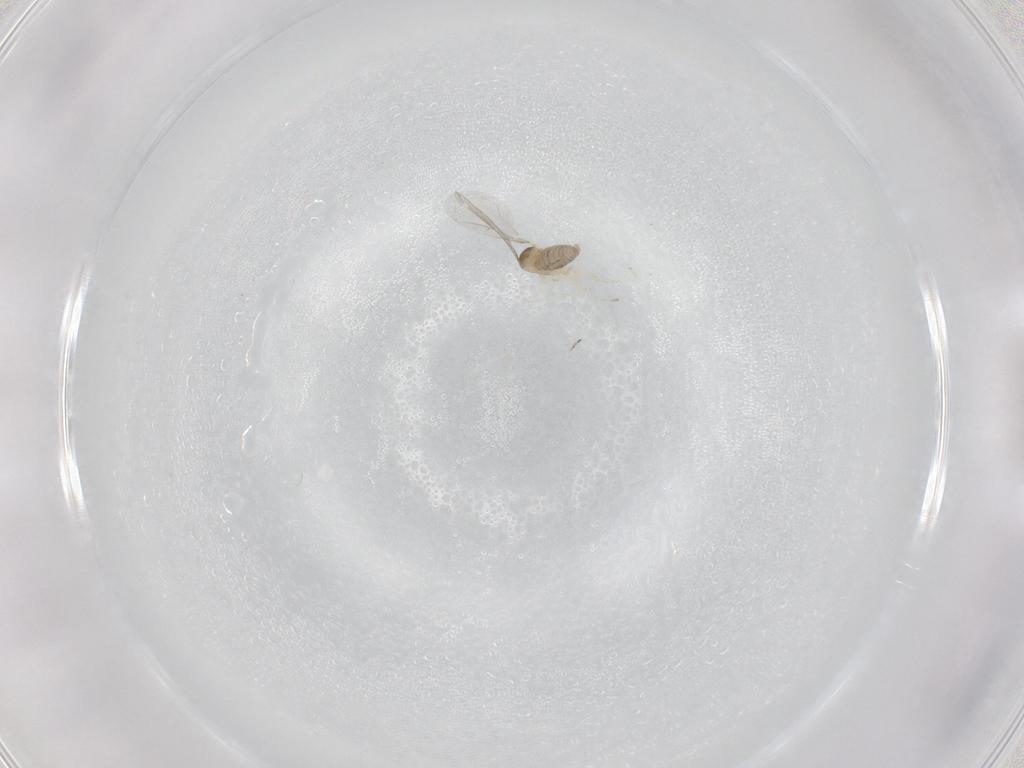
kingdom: Animalia
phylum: Arthropoda
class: Insecta
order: Diptera
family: Cecidomyiidae
